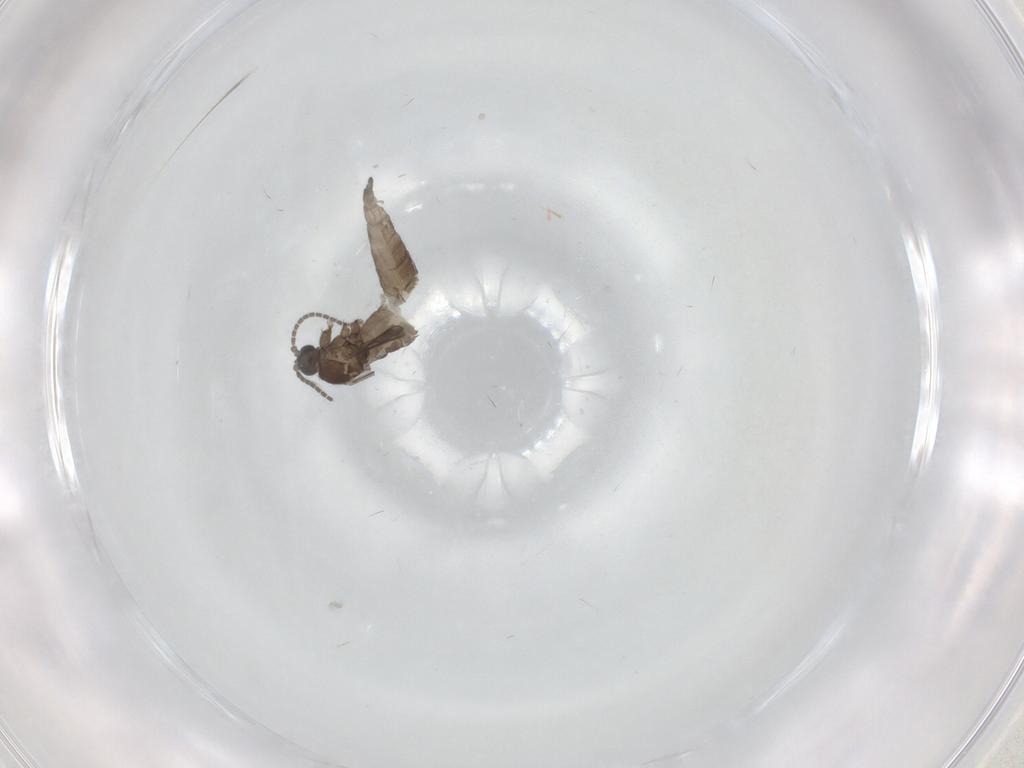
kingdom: Animalia
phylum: Arthropoda
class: Insecta
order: Diptera
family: Sciaridae
